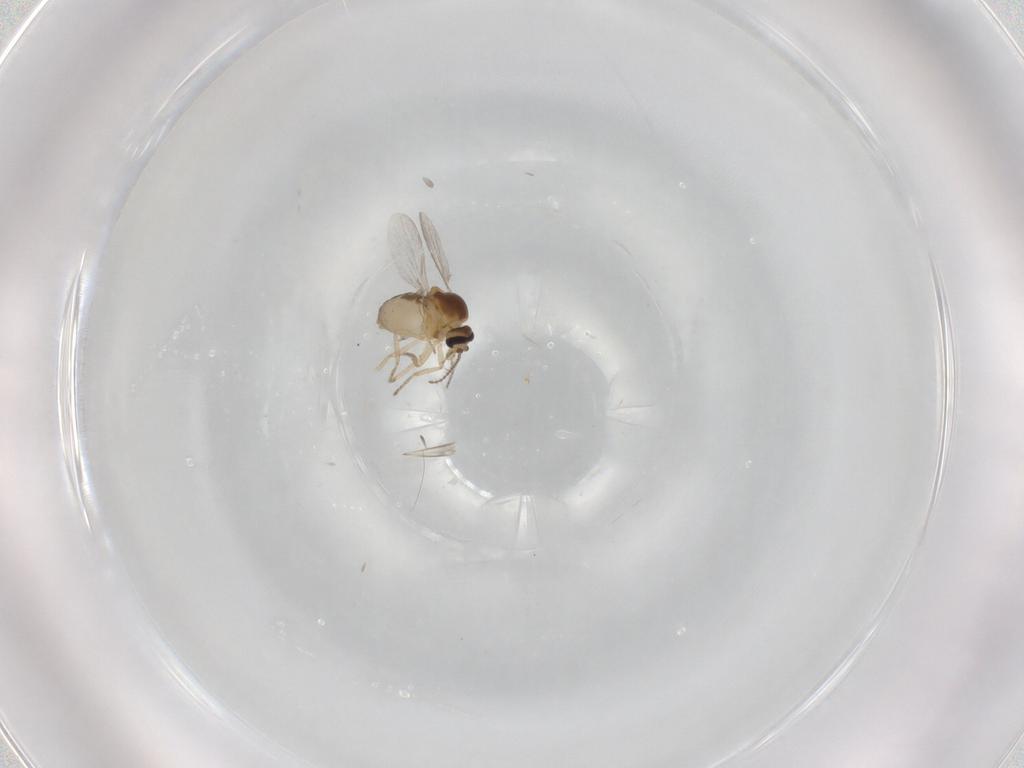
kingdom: Animalia
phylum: Arthropoda
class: Insecta
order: Diptera
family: Ceratopogonidae
